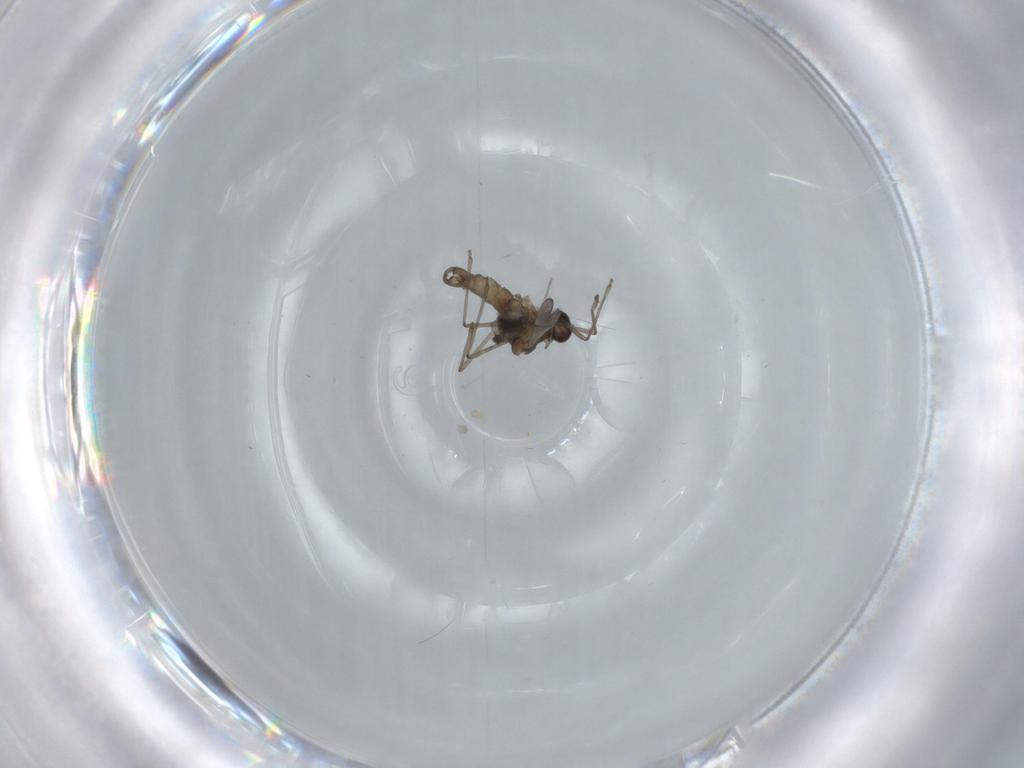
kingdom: Animalia
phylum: Arthropoda
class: Insecta
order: Diptera
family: Cecidomyiidae
